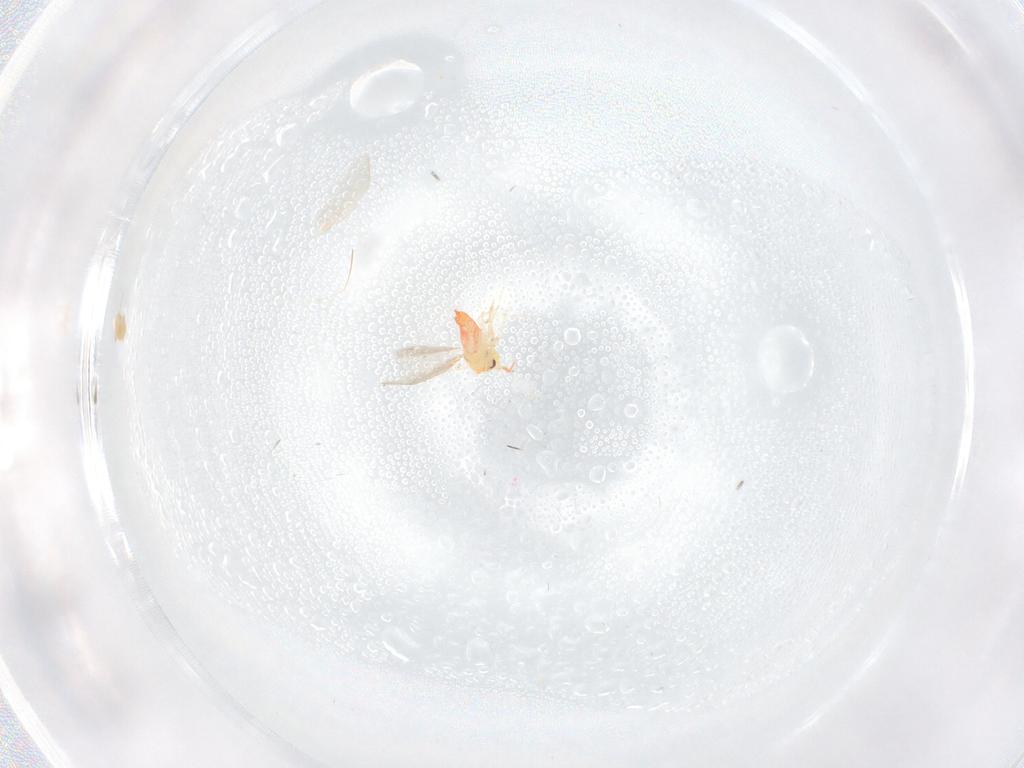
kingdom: Animalia
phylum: Arthropoda
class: Insecta
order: Hemiptera
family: Aleyrodidae
